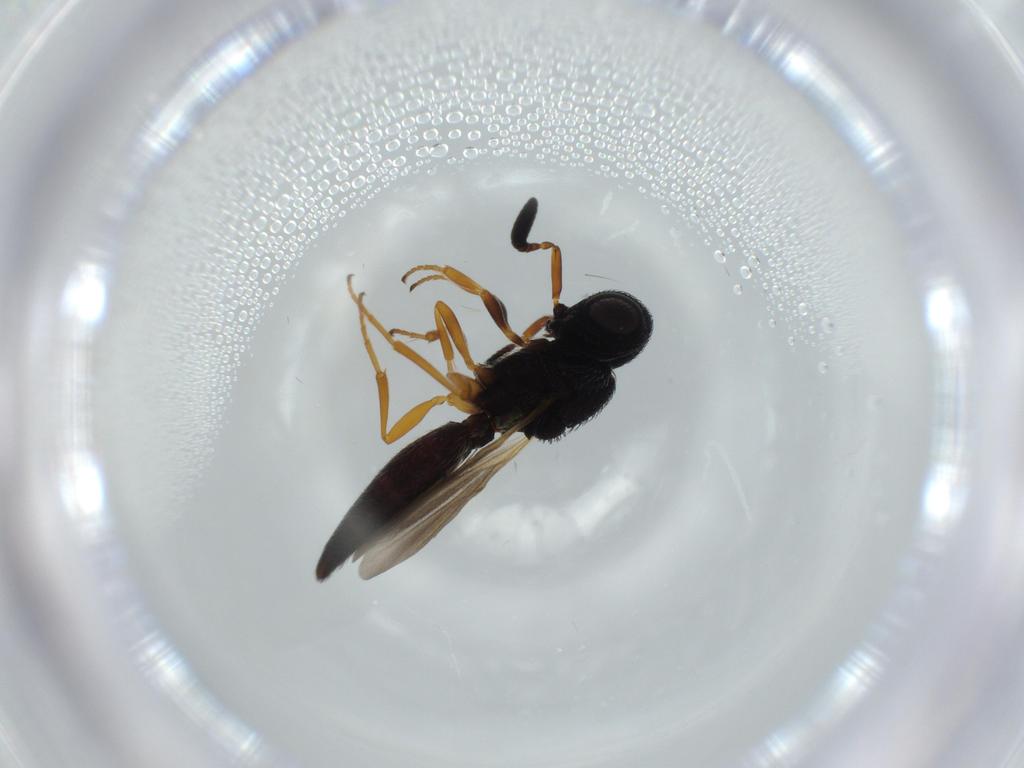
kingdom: Animalia
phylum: Arthropoda
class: Insecta
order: Hymenoptera
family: Scelionidae
